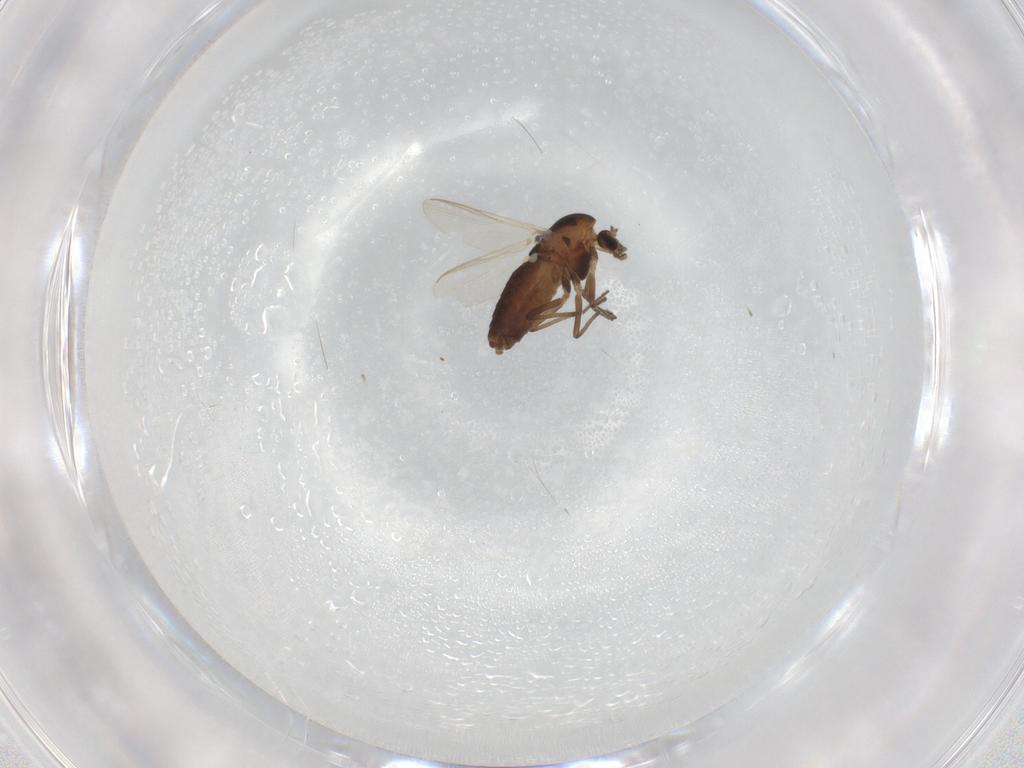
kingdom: Animalia
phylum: Arthropoda
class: Insecta
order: Diptera
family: Chironomidae
